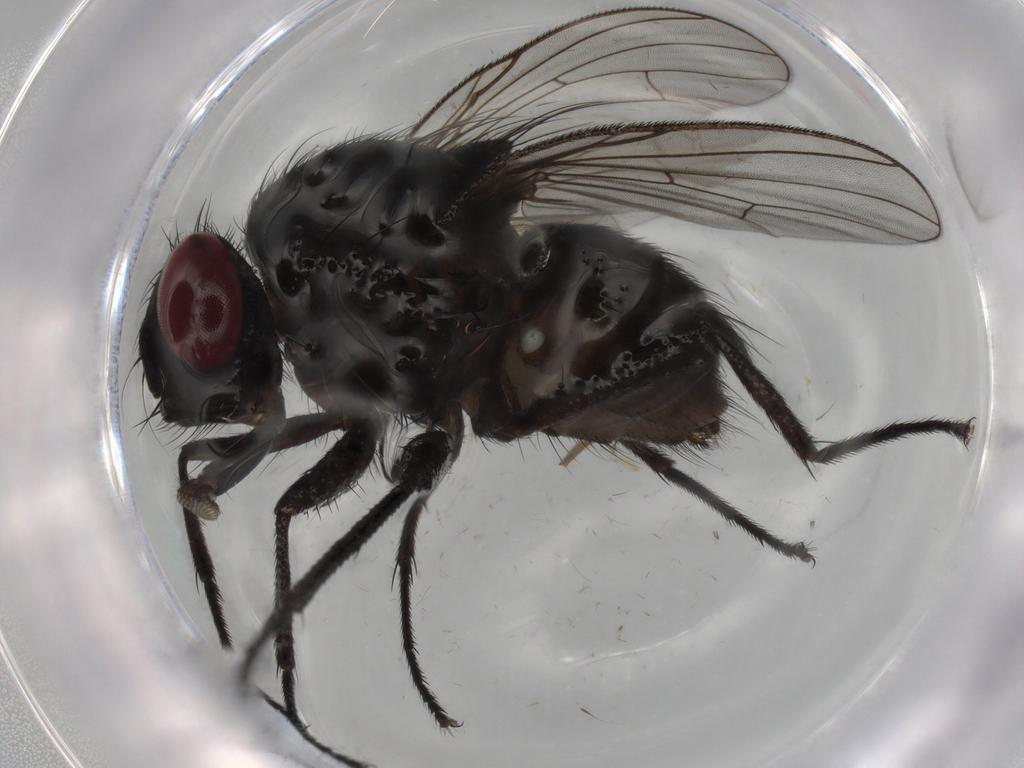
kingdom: Animalia
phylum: Arthropoda
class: Insecta
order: Diptera
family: Muscidae
